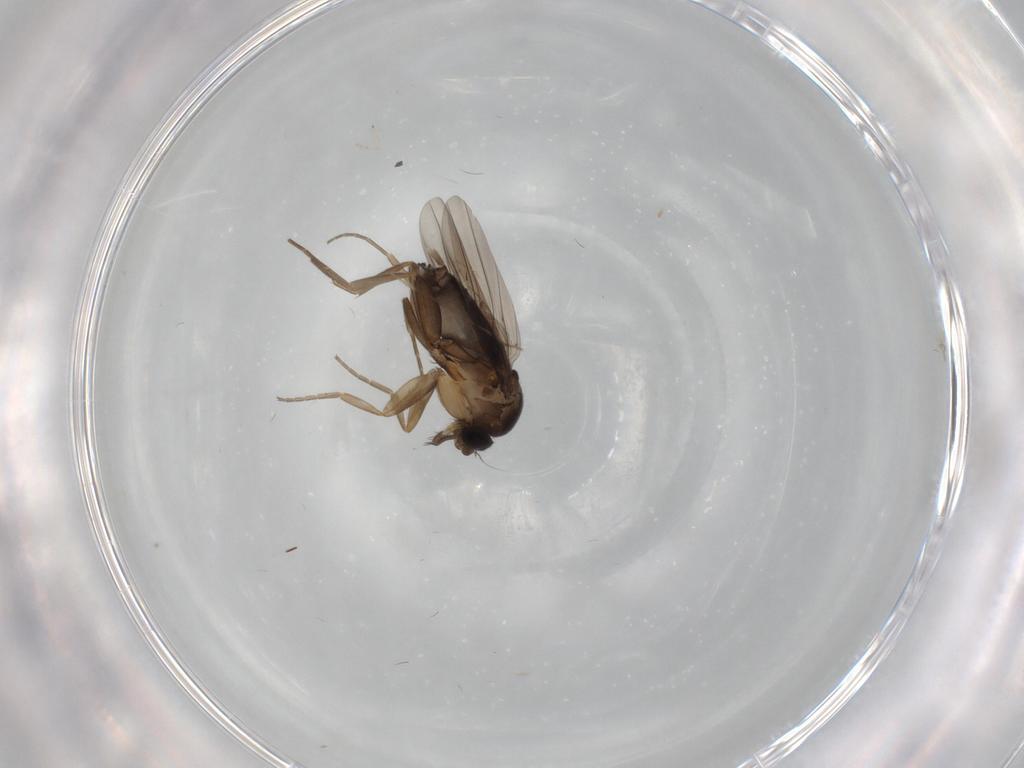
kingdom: Animalia
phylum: Arthropoda
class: Insecta
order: Diptera
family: Phoridae
